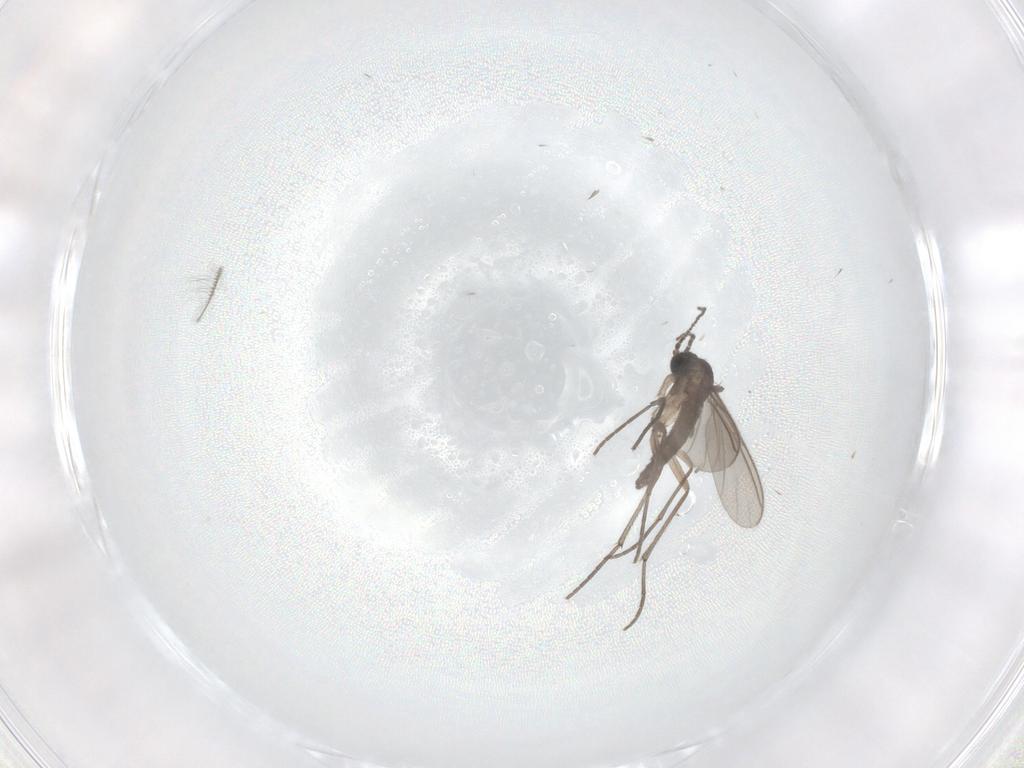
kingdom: Animalia
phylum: Arthropoda
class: Insecta
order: Diptera
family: Sciaridae
